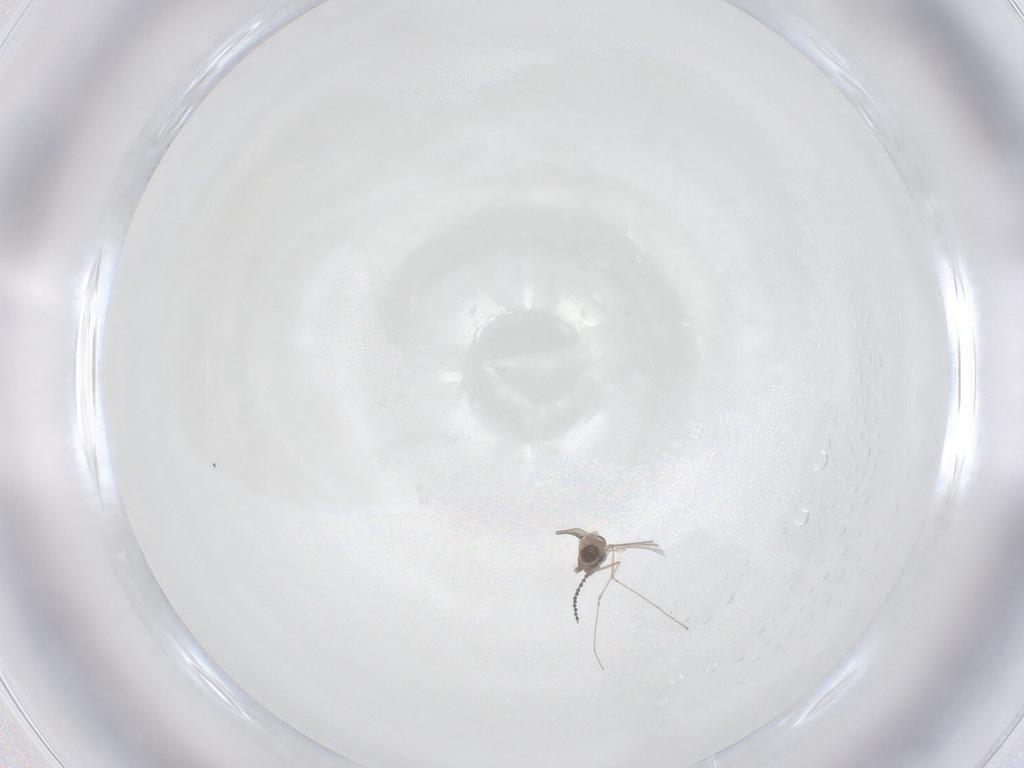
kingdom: Animalia
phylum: Arthropoda
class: Insecta
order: Diptera
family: Cecidomyiidae
